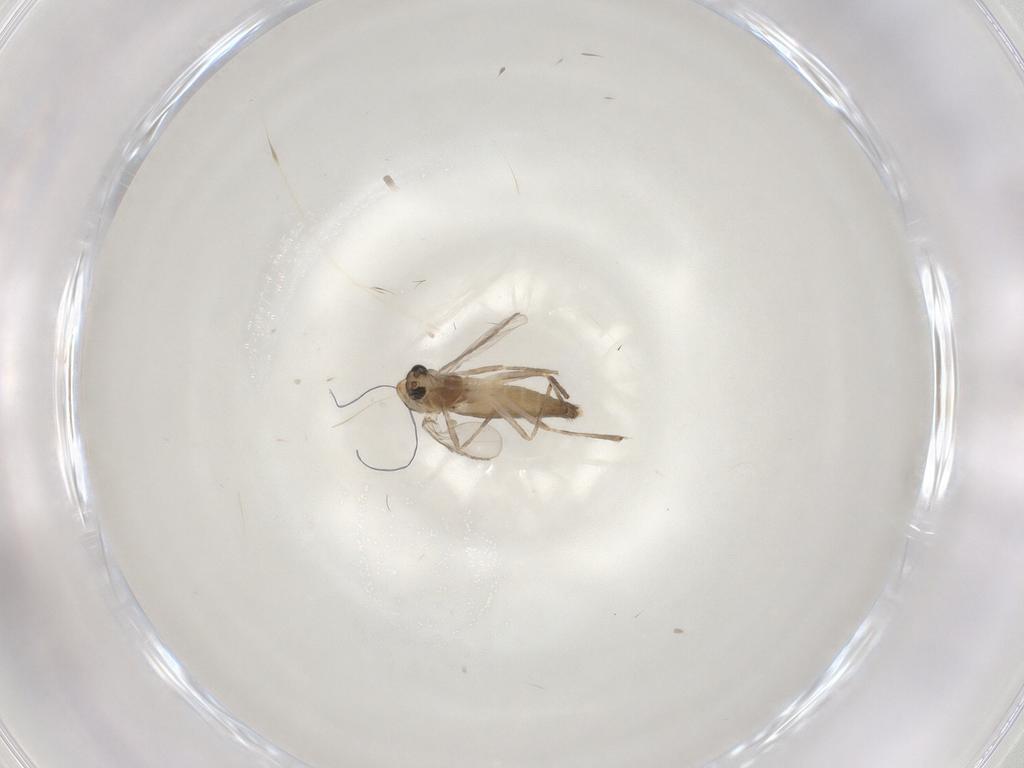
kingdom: Animalia
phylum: Arthropoda
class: Insecta
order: Diptera
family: Chironomidae
